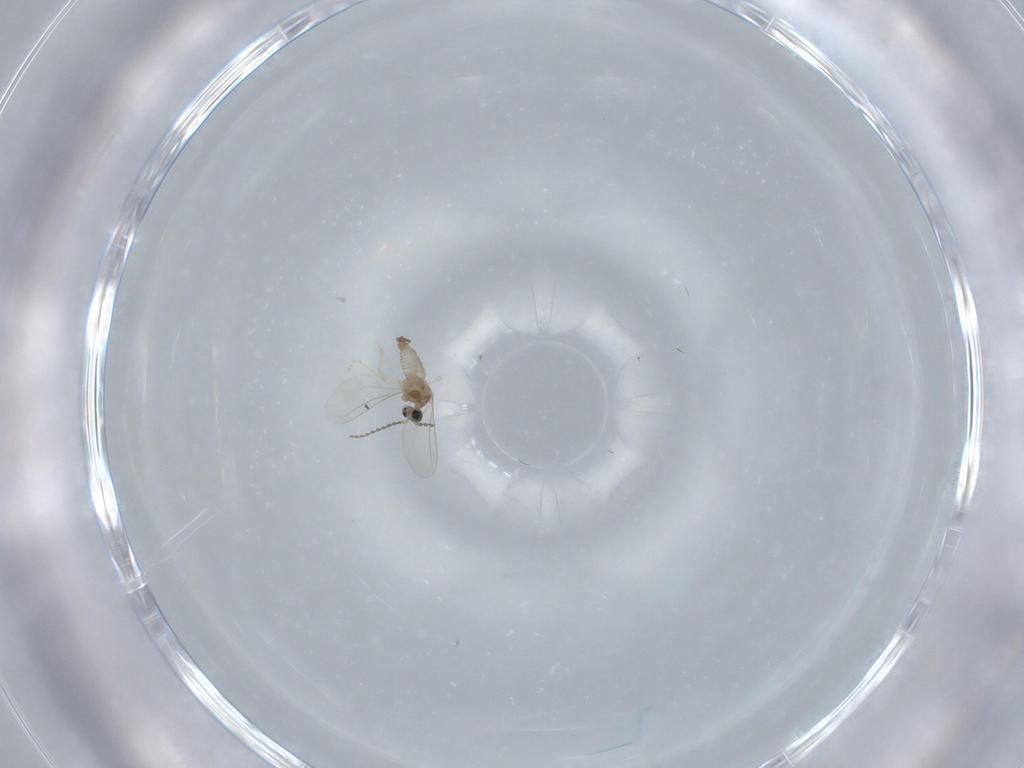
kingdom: Animalia
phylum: Arthropoda
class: Insecta
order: Diptera
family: Sciaridae
